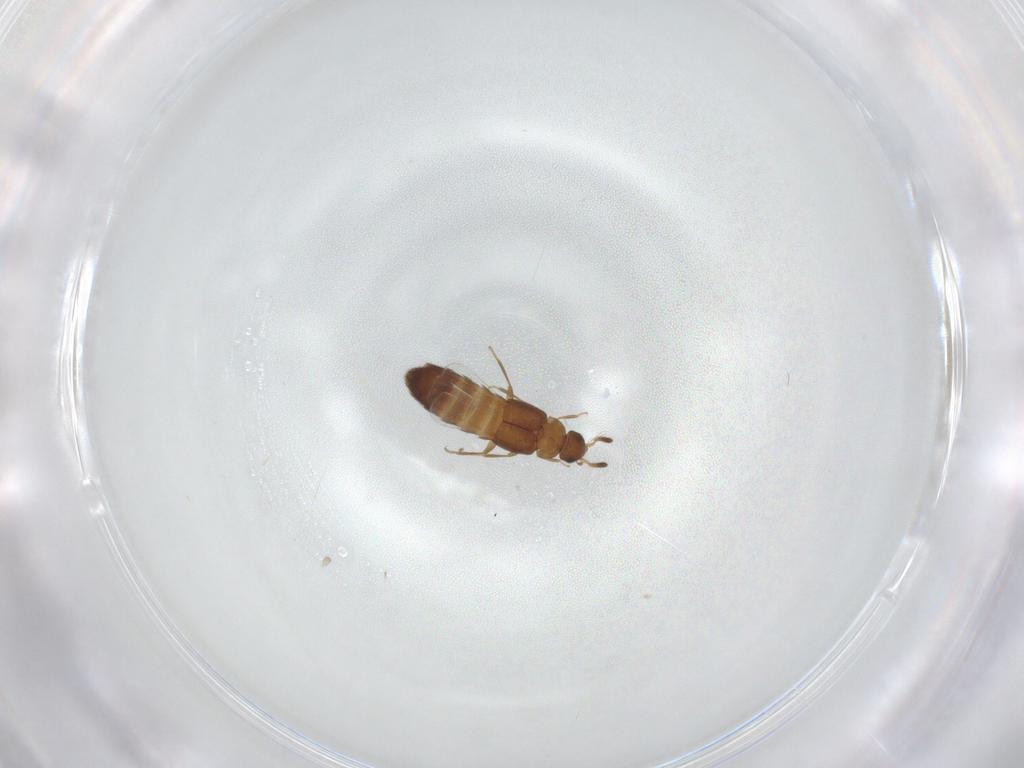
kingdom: Animalia
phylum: Arthropoda
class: Insecta
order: Coleoptera
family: Staphylinidae
